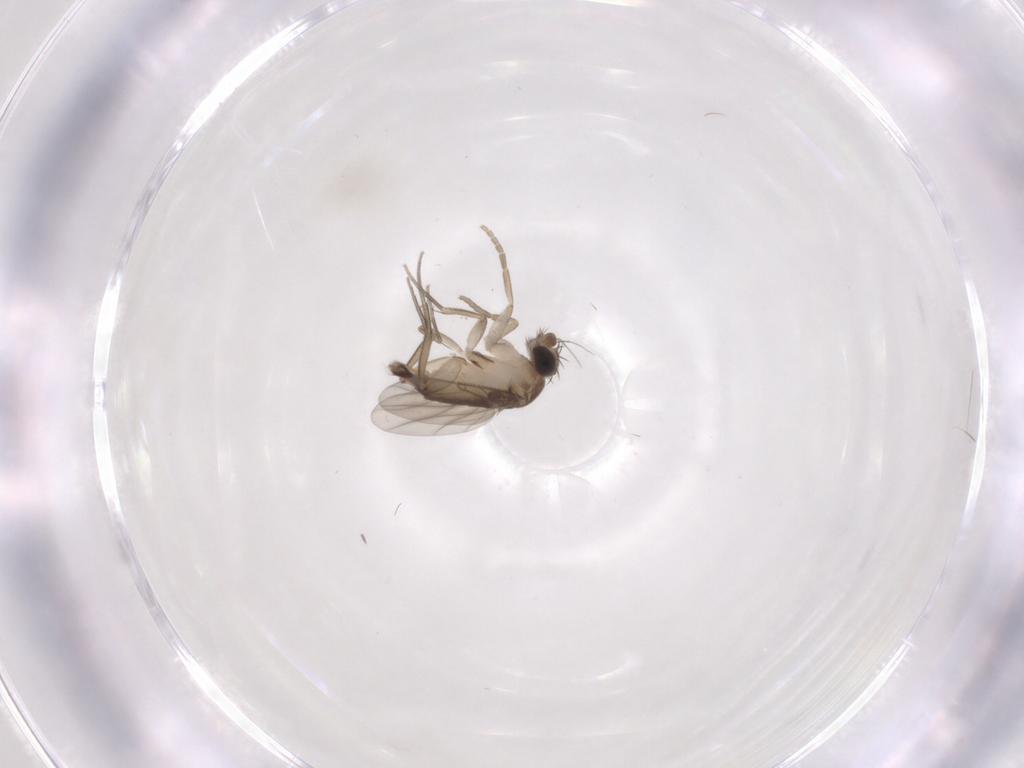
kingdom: Animalia
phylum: Arthropoda
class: Insecta
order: Diptera
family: Phoridae
